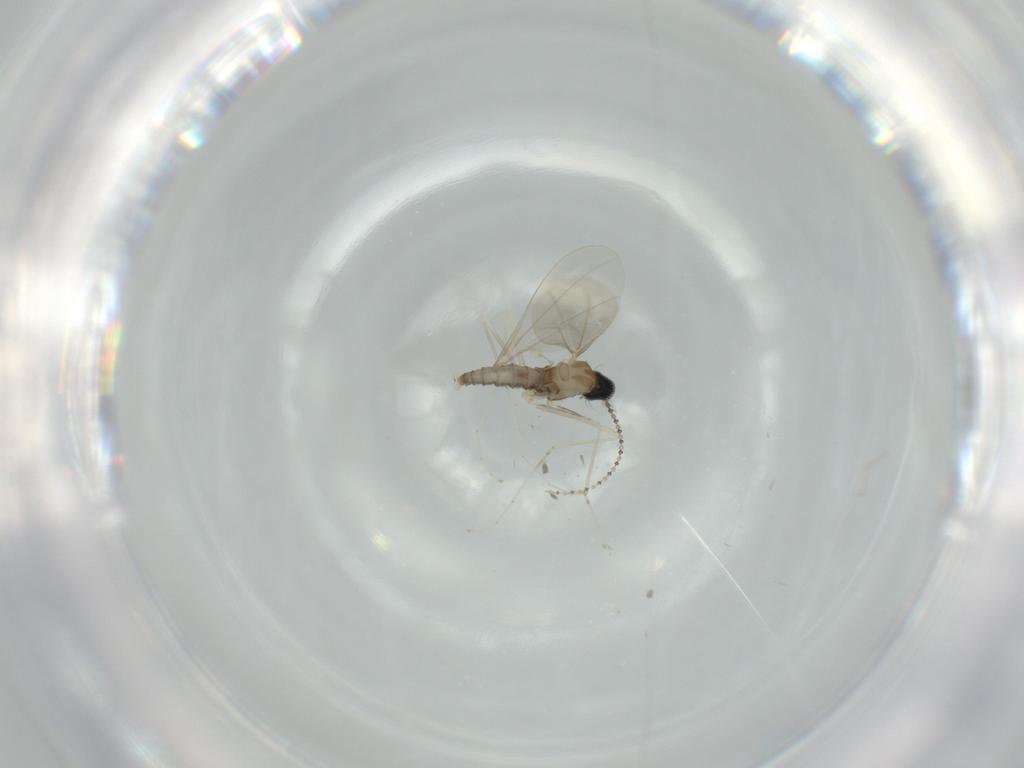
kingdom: Animalia
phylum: Arthropoda
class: Insecta
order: Diptera
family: Cecidomyiidae
